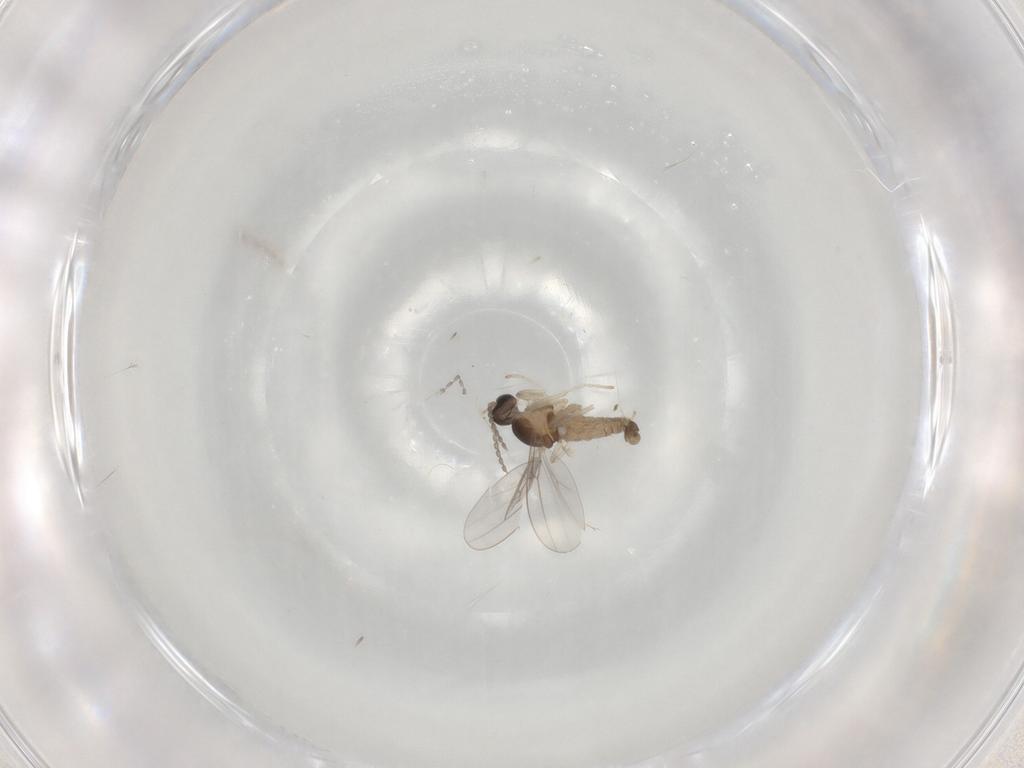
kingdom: Animalia
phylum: Arthropoda
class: Insecta
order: Diptera
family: Cecidomyiidae
